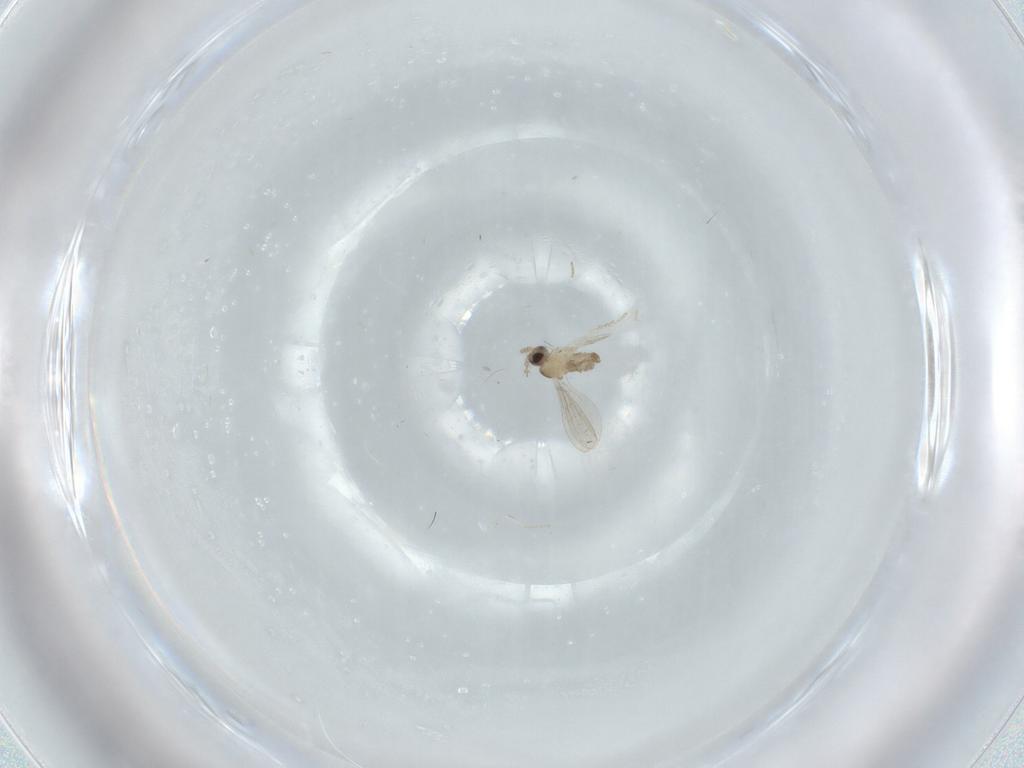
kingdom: Animalia
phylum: Arthropoda
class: Insecta
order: Diptera
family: Cecidomyiidae
